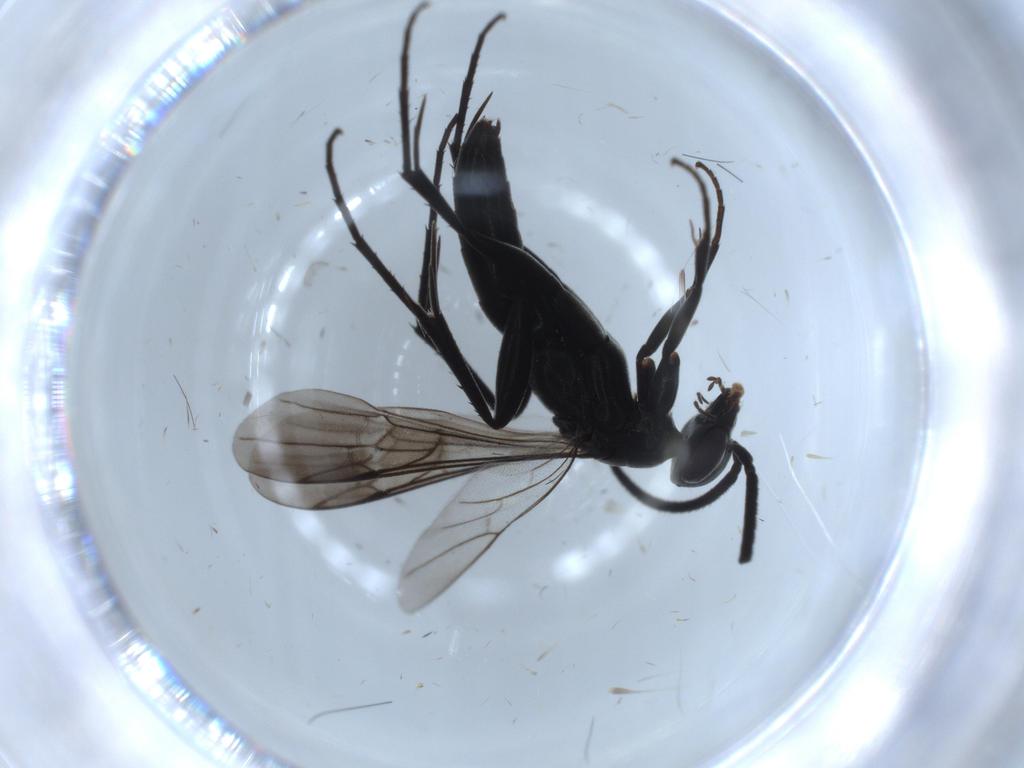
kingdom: Animalia
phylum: Arthropoda
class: Insecta
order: Hymenoptera
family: Pompilidae
